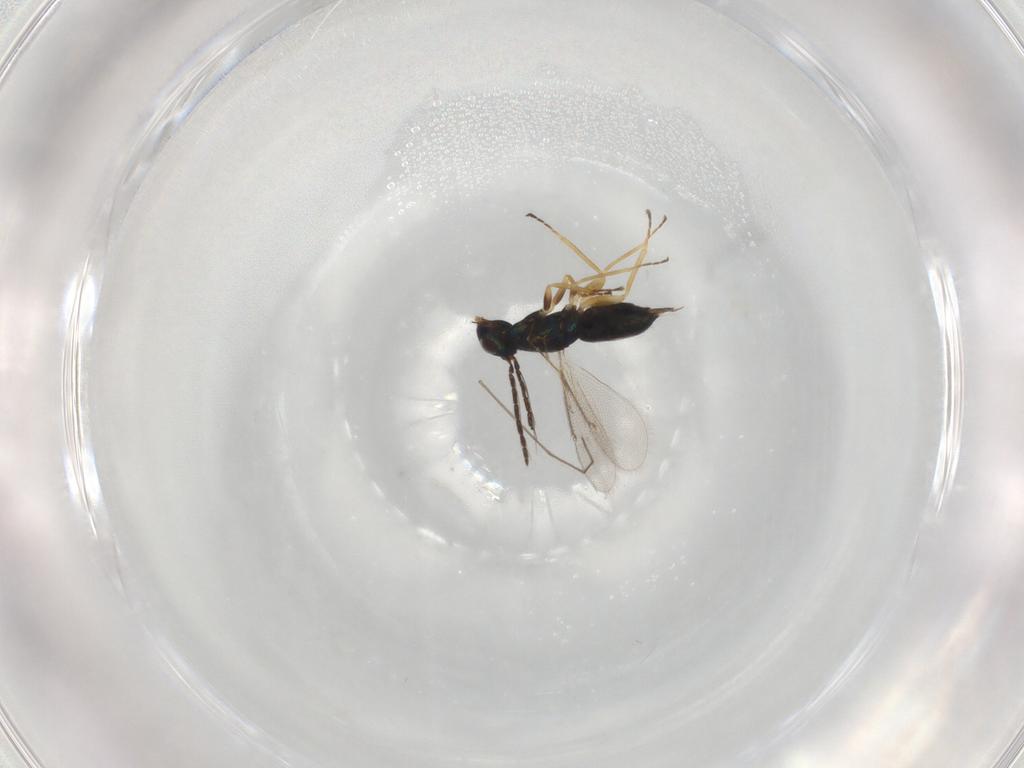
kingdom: Animalia
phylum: Arthropoda
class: Insecta
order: Hymenoptera
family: Eulophidae
